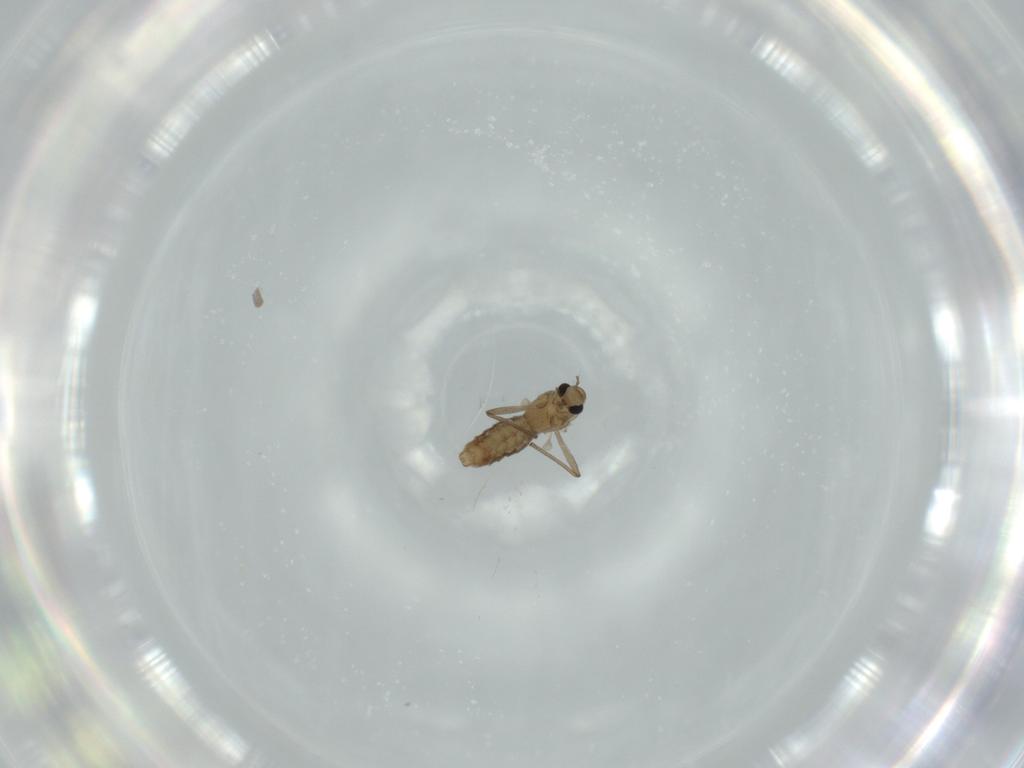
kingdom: Animalia
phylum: Arthropoda
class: Insecta
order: Diptera
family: Chironomidae
